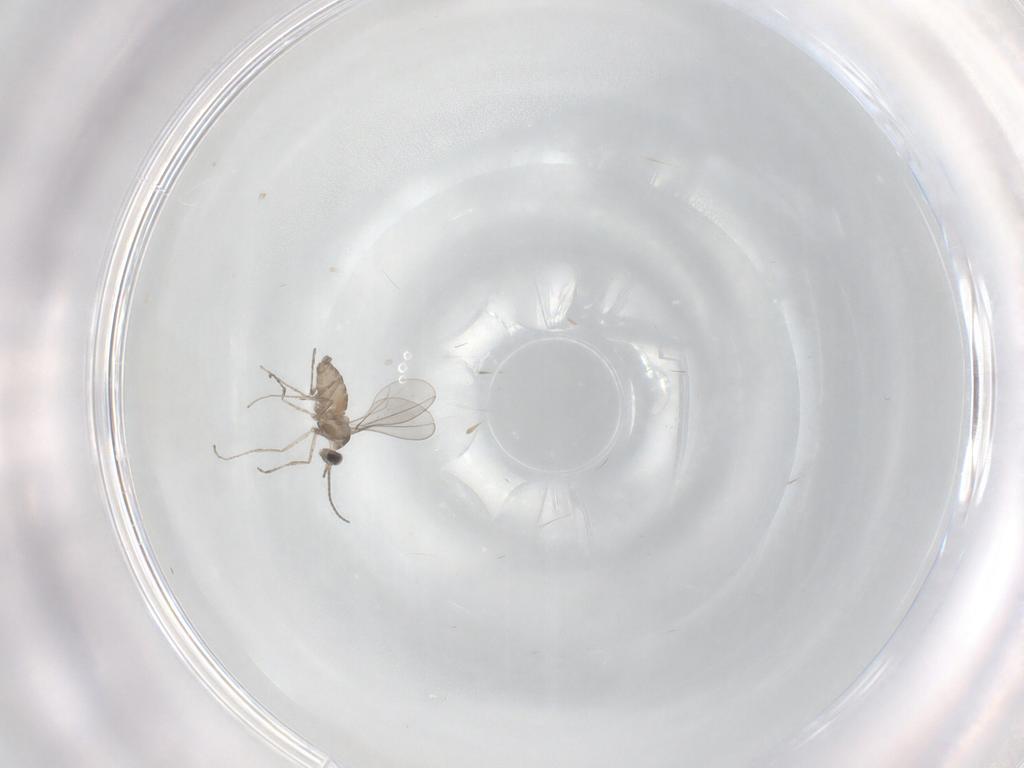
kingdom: Animalia
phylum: Arthropoda
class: Insecta
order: Diptera
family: Cecidomyiidae
